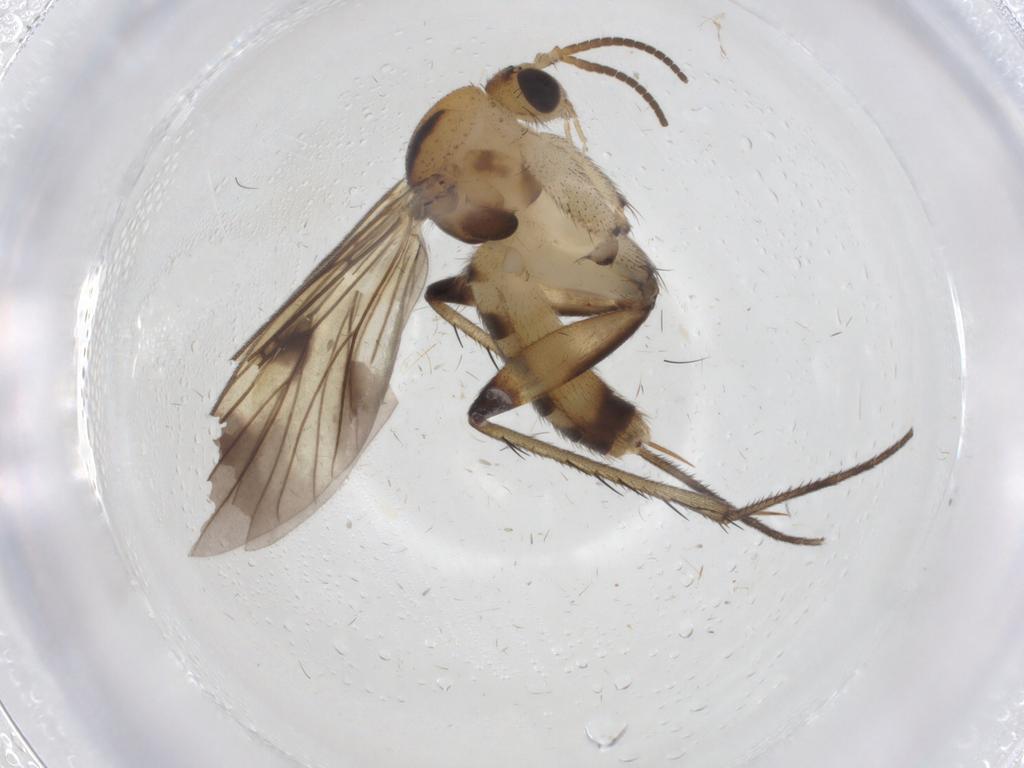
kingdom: Animalia
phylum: Arthropoda
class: Insecta
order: Diptera
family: Mycetophilidae
